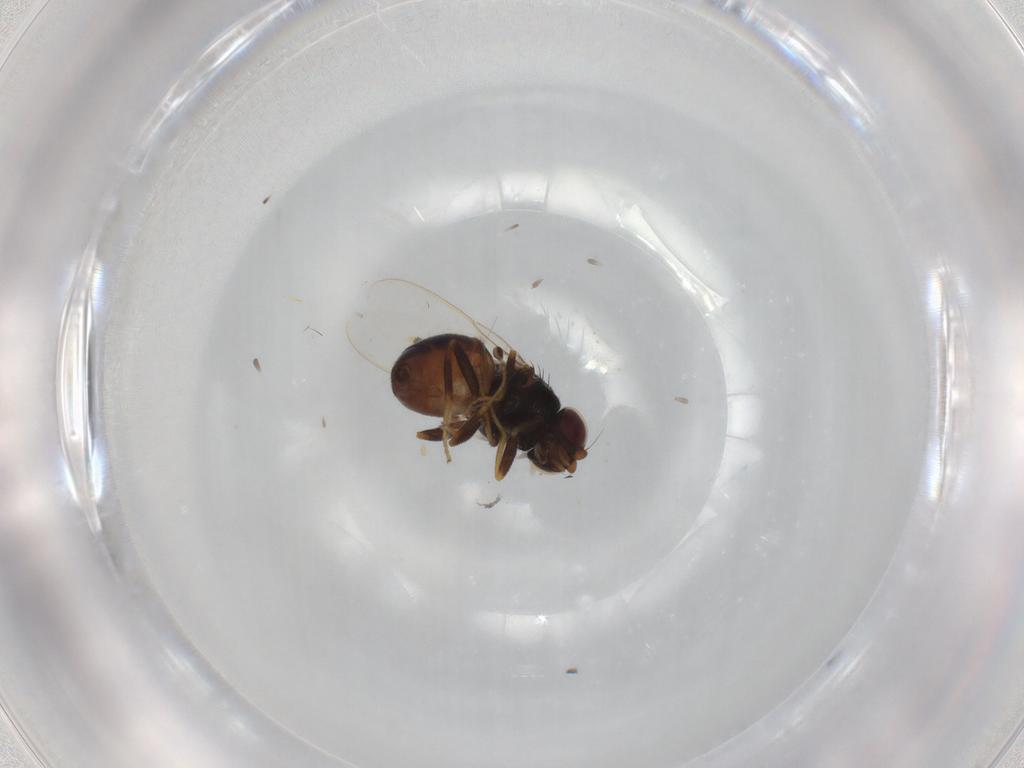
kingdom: Animalia
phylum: Arthropoda
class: Insecta
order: Diptera
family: Chloropidae
